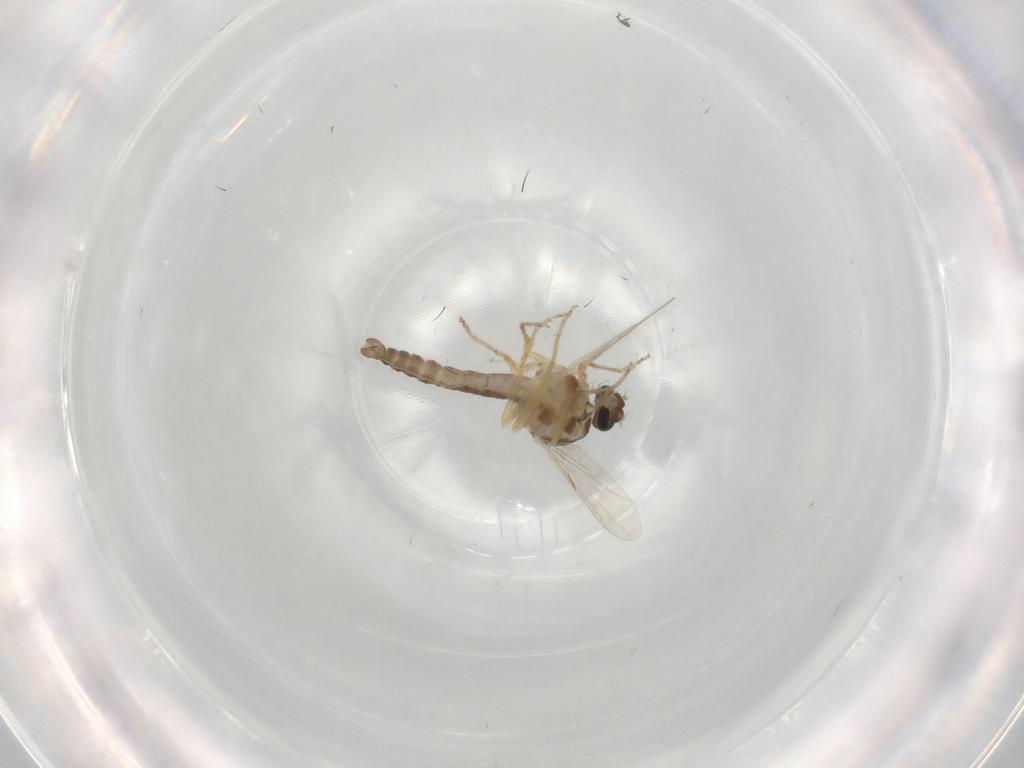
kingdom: Animalia
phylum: Arthropoda
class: Insecta
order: Diptera
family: Ceratopogonidae
